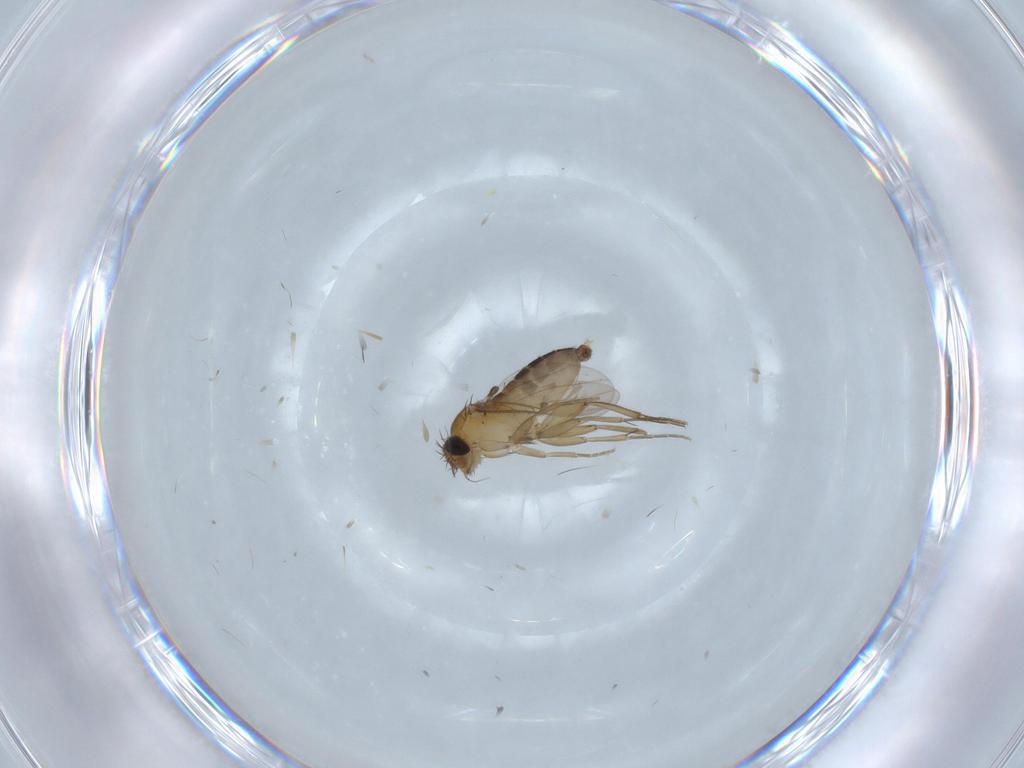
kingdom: Animalia
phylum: Arthropoda
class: Insecta
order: Diptera
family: Phoridae
